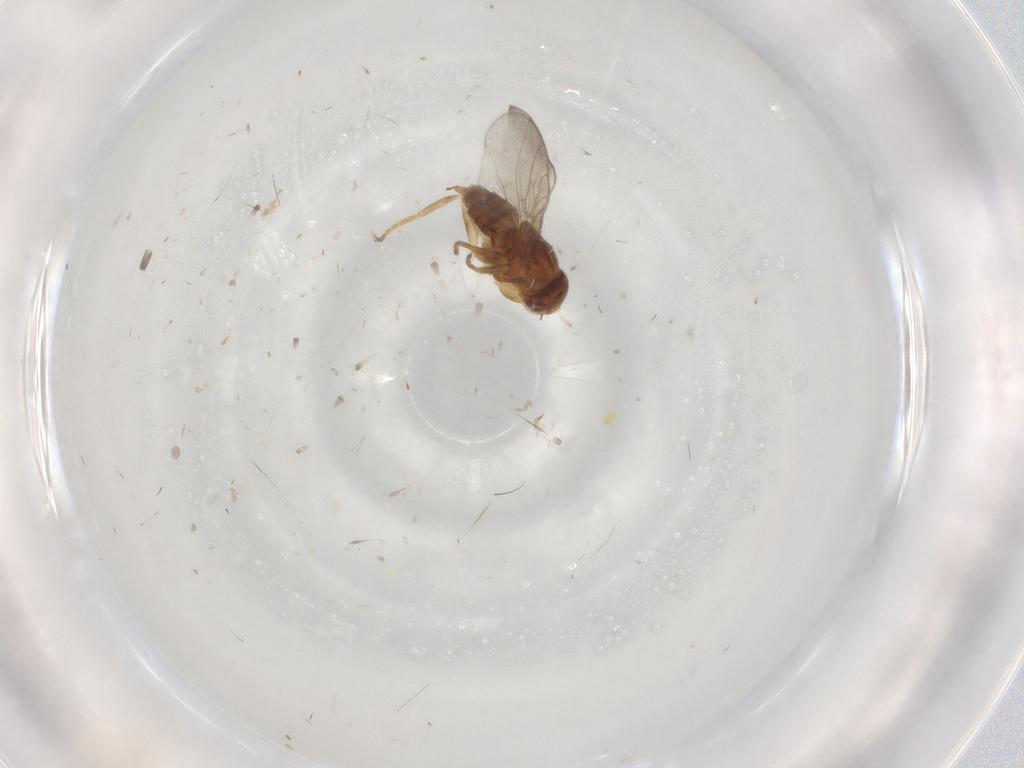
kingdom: Animalia
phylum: Arthropoda
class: Insecta
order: Diptera
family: Chloropidae
